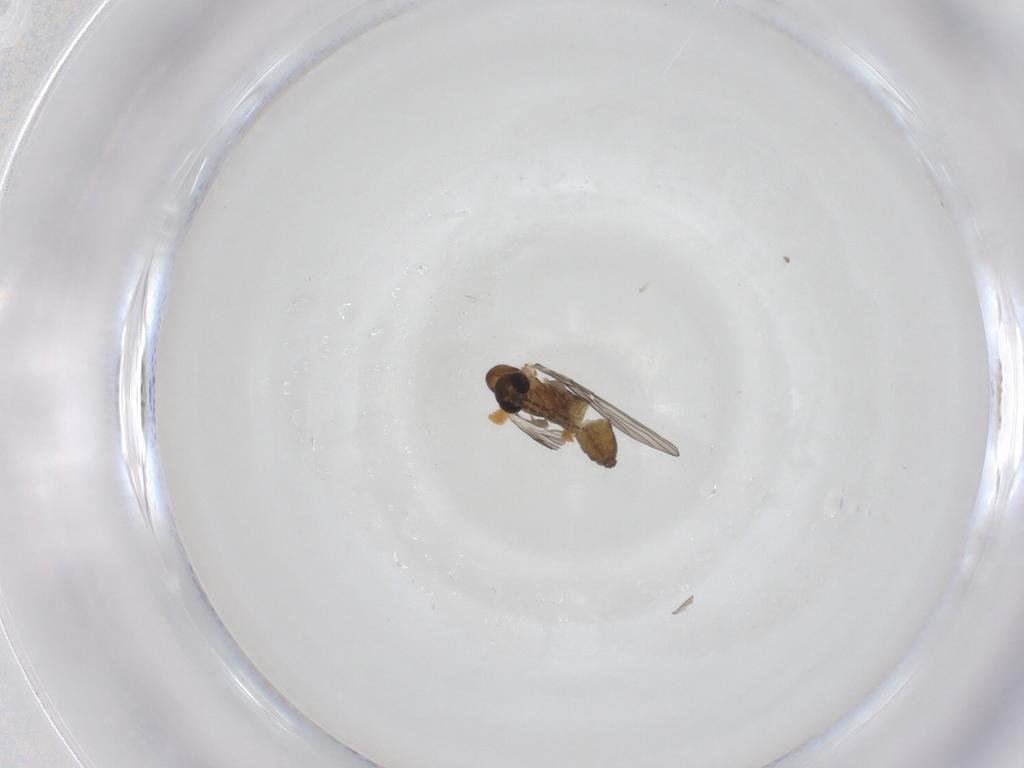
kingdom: Animalia
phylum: Arthropoda
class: Insecta
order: Diptera
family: Psychodidae
